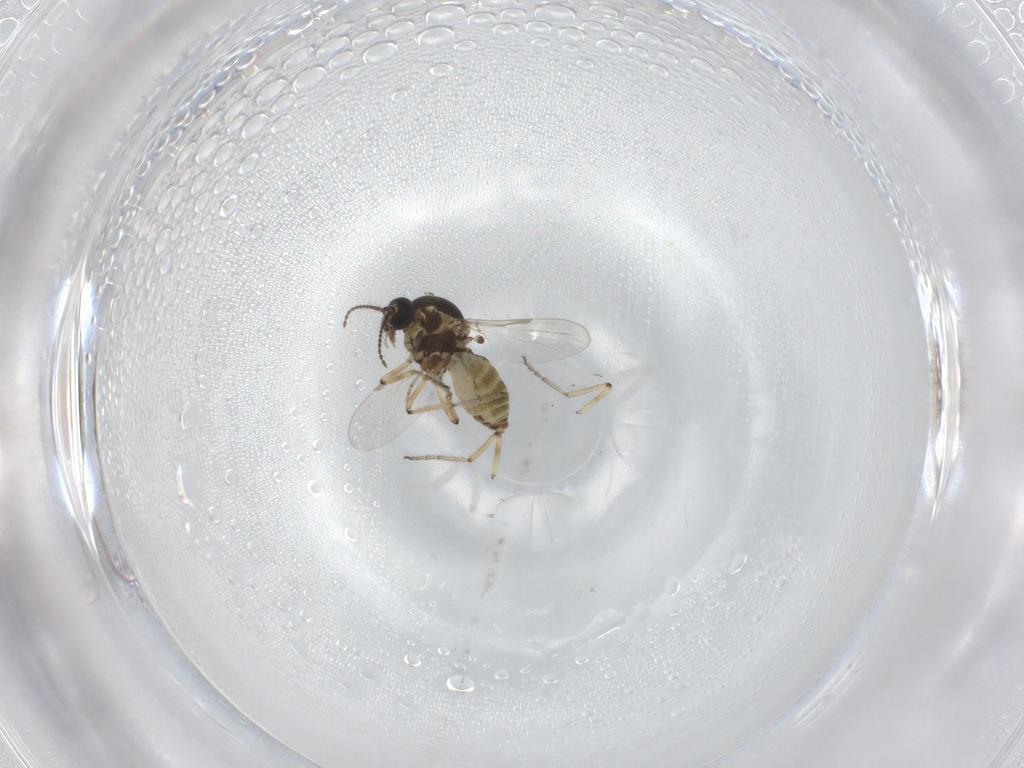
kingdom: Animalia
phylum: Arthropoda
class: Insecta
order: Diptera
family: Ceratopogonidae
